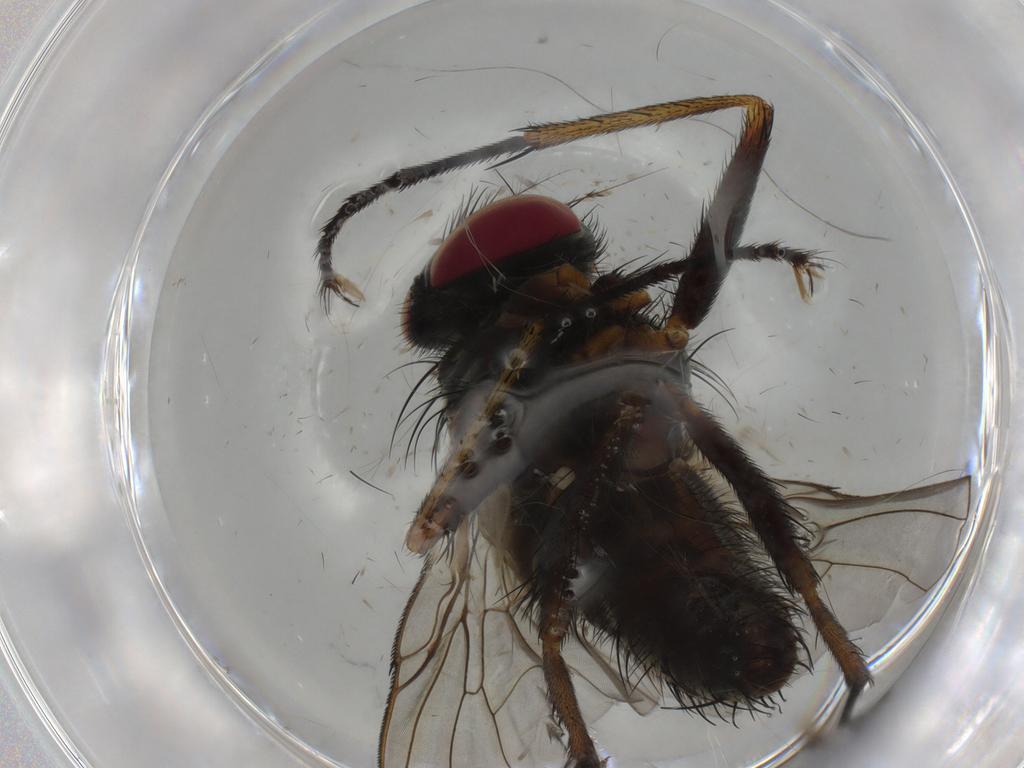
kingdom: Animalia
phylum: Arthropoda
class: Insecta
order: Diptera
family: Muscidae
